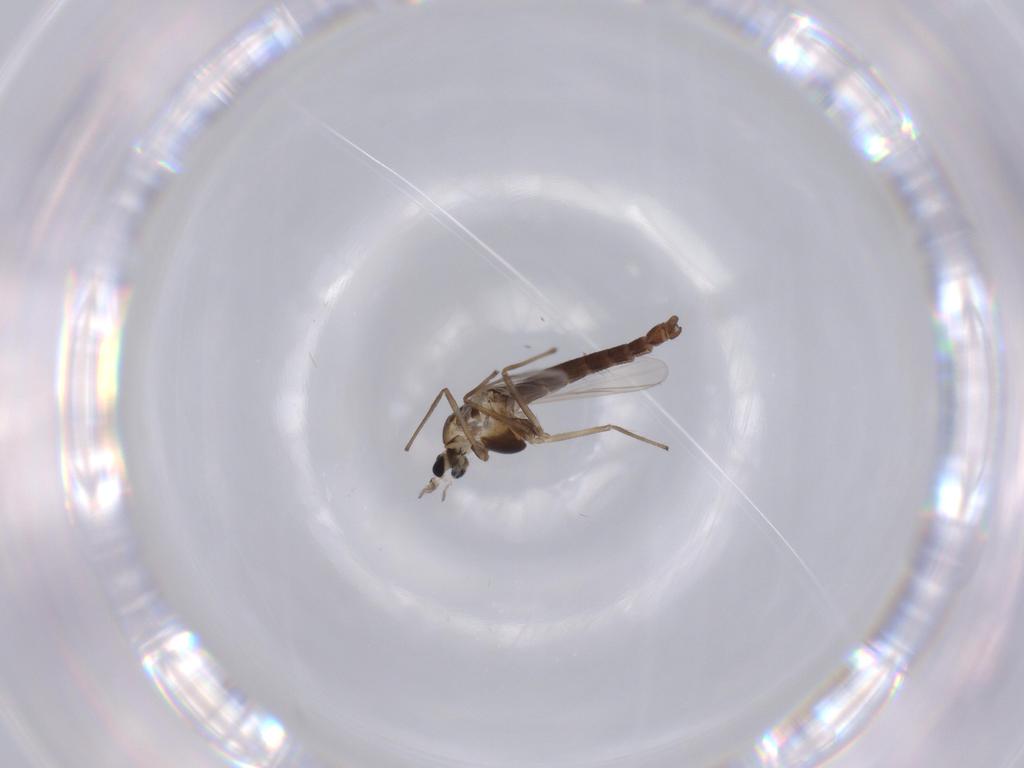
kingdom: Animalia
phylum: Arthropoda
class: Insecta
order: Diptera
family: Chironomidae
